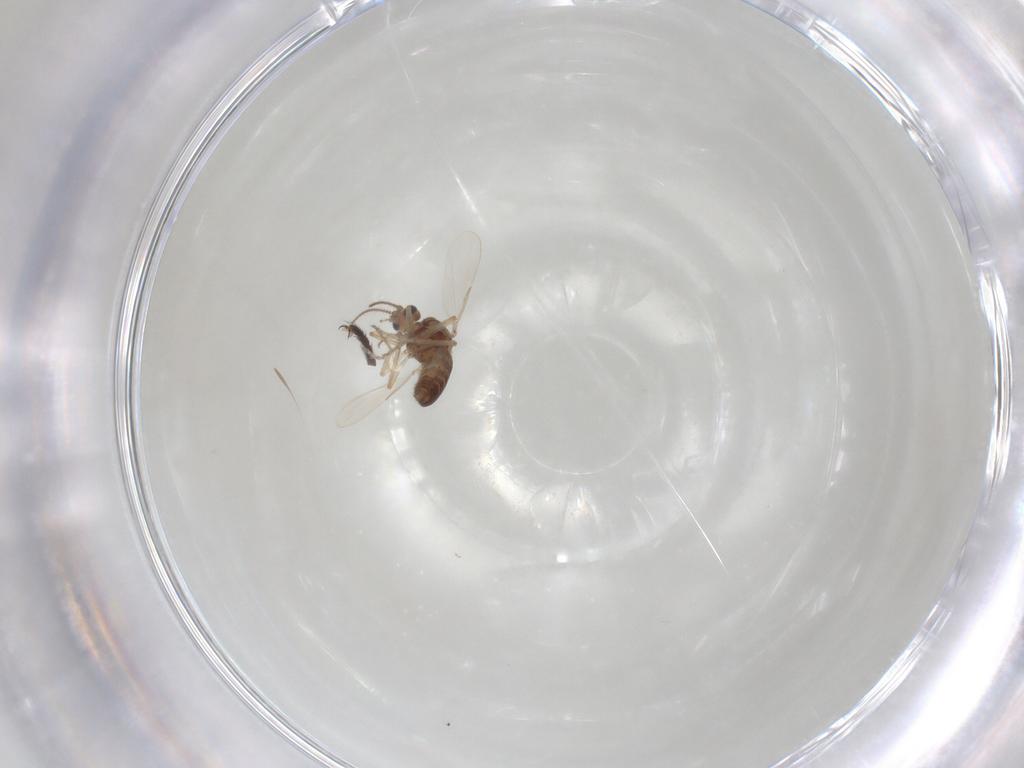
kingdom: Animalia
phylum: Arthropoda
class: Insecta
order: Diptera
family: Ceratopogonidae
